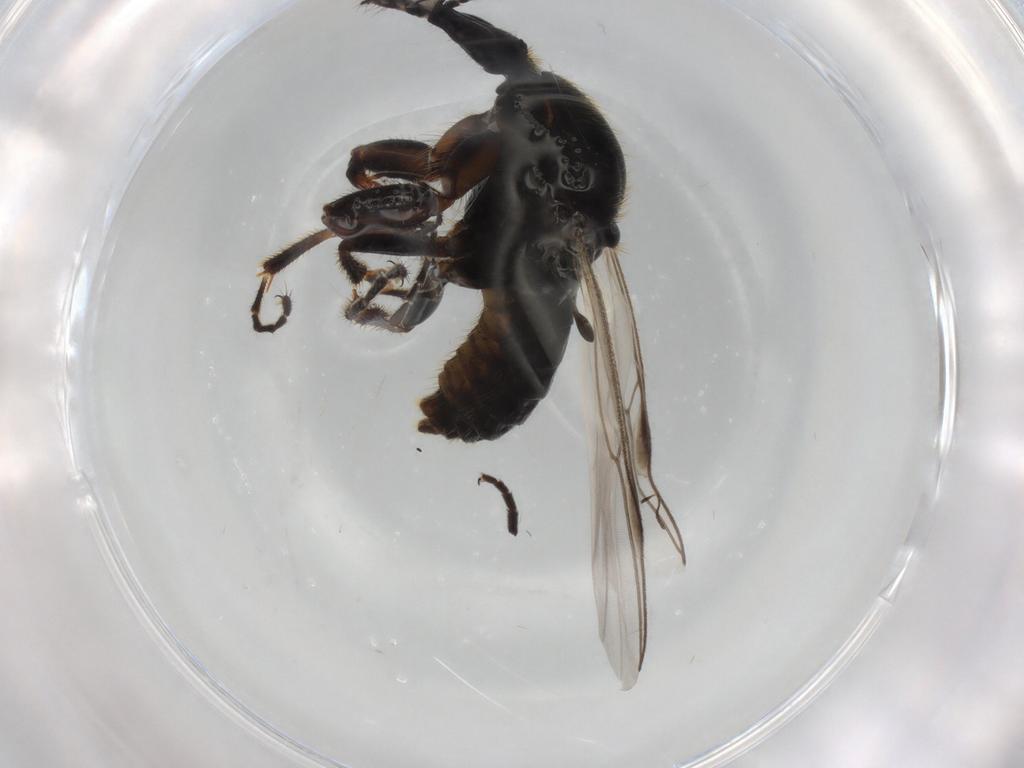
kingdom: Animalia
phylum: Arthropoda
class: Insecta
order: Diptera
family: Bibionidae
